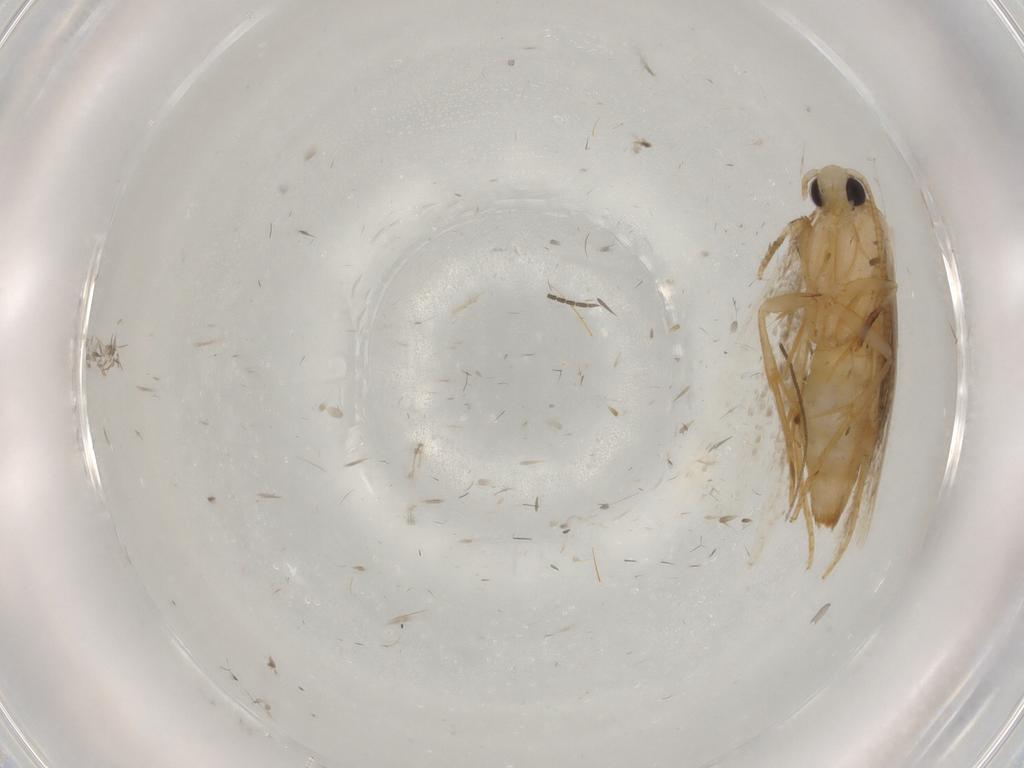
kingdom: Animalia
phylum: Arthropoda
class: Insecta
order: Lepidoptera
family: Tineidae
